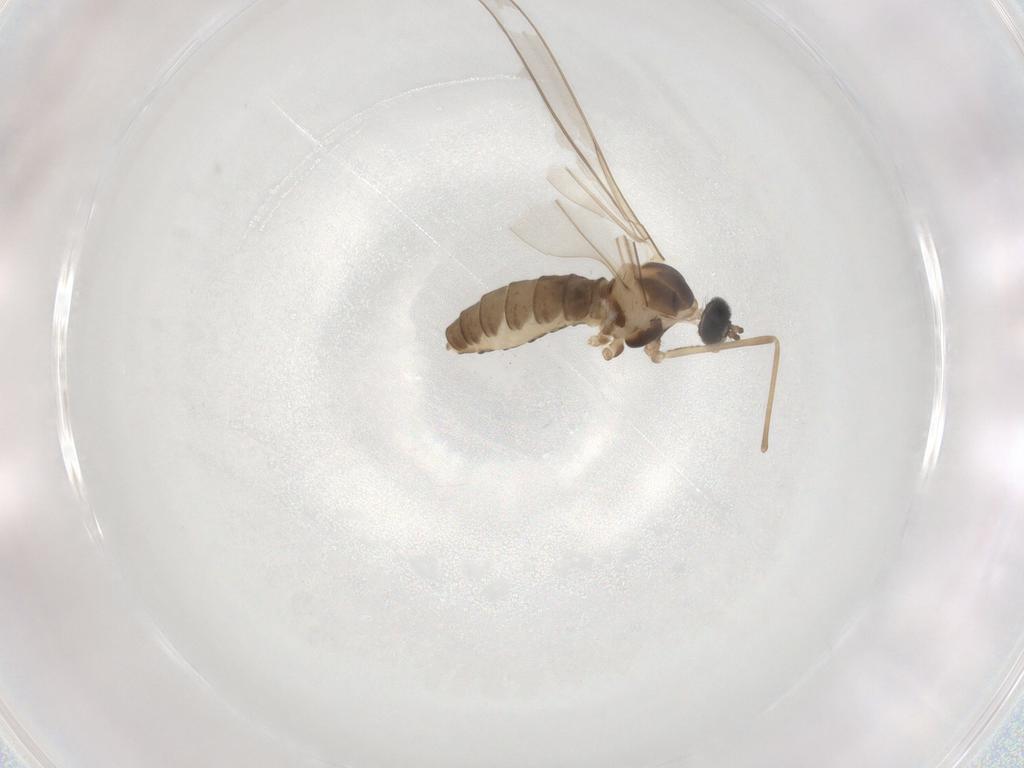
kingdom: Animalia
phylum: Arthropoda
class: Insecta
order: Diptera
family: Cecidomyiidae
